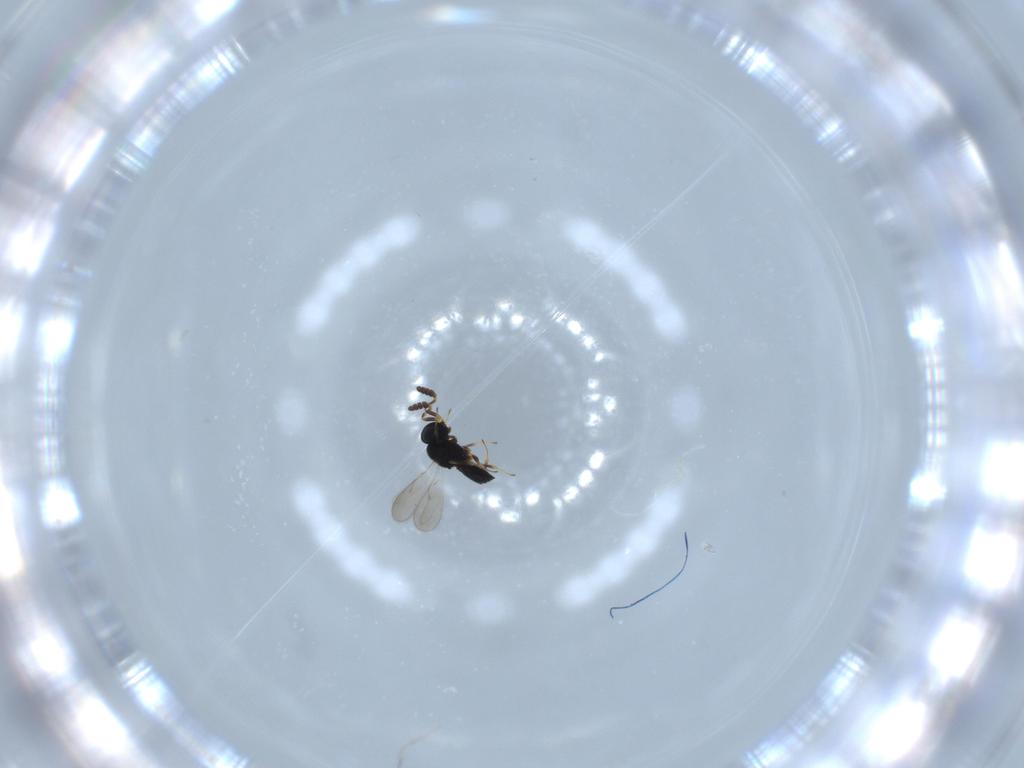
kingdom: Animalia
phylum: Arthropoda
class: Insecta
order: Hymenoptera
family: Scelionidae
